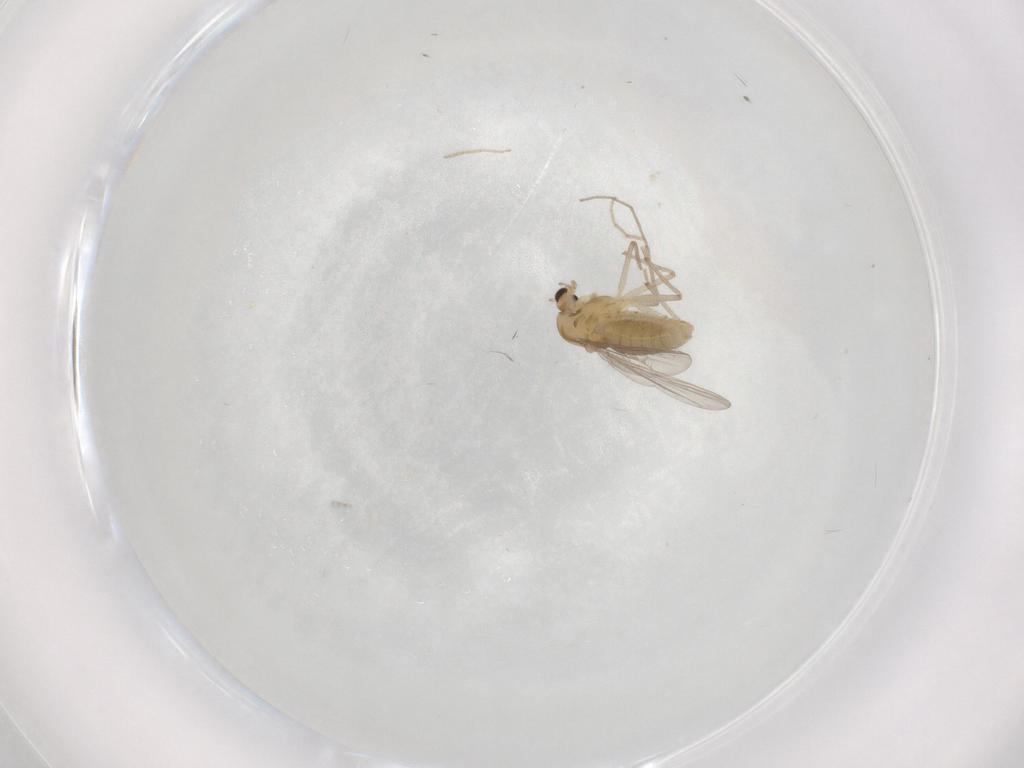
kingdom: Animalia
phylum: Arthropoda
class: Insecta
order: Diptera
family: Chironomidae
